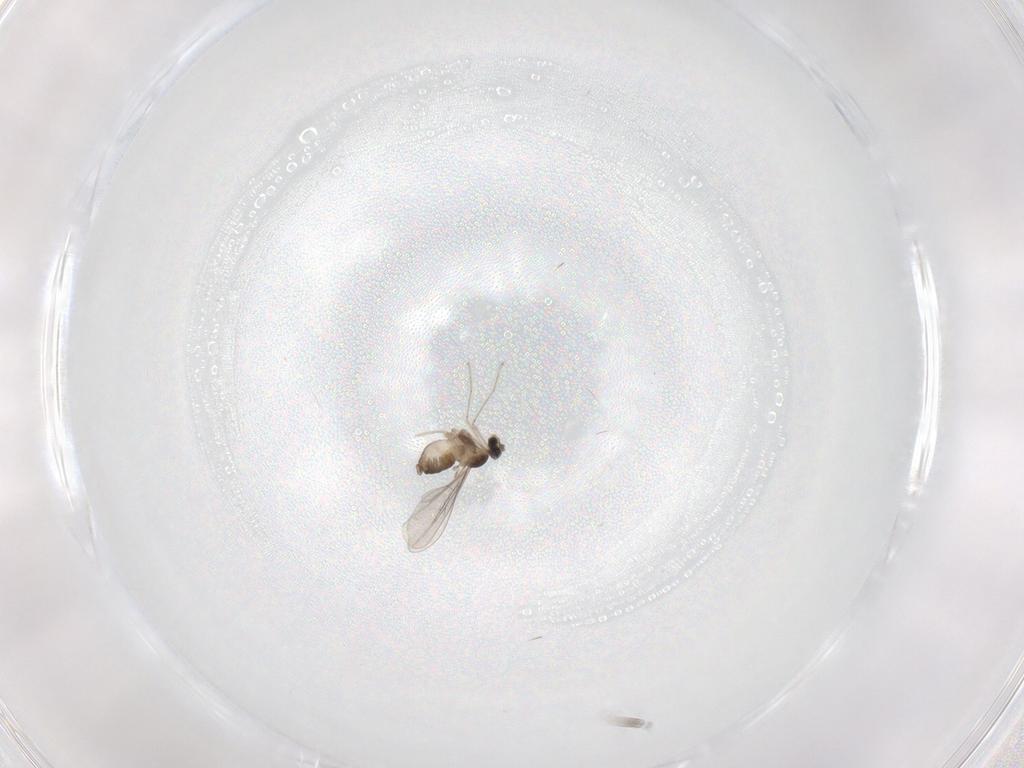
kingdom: Animalia
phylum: Arthropoda
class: Insecta
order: Diptera
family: Cecidomyiidae
